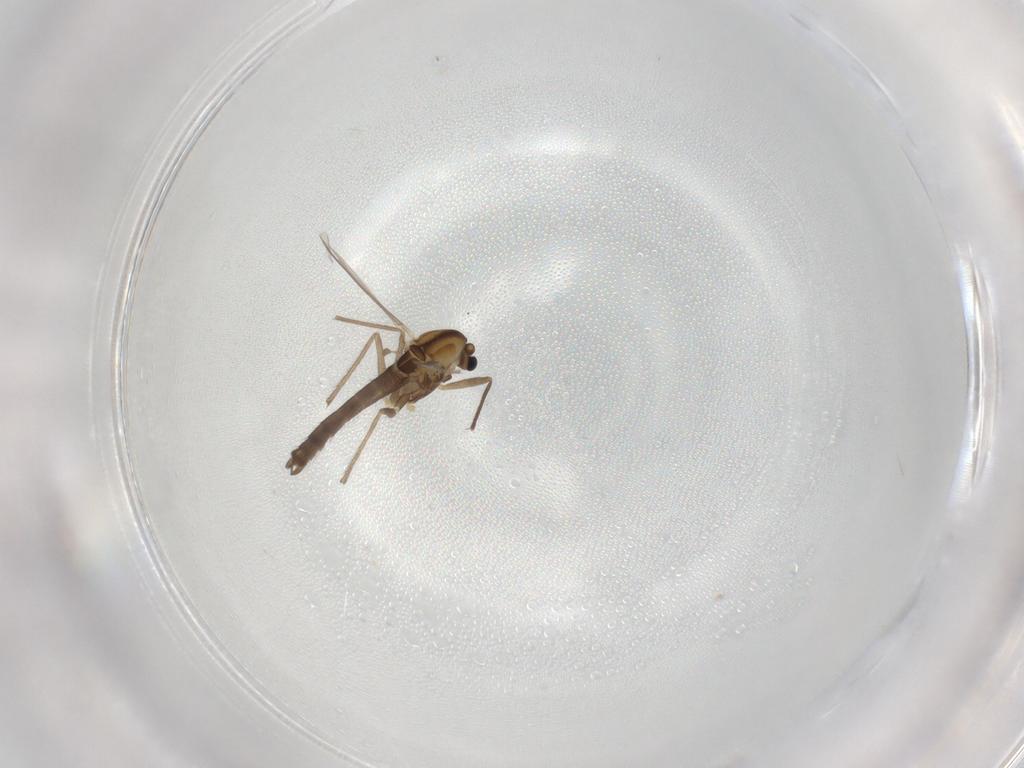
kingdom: Animalia
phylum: Arthropoda
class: Insecta
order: Diptera
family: Chironomidae
